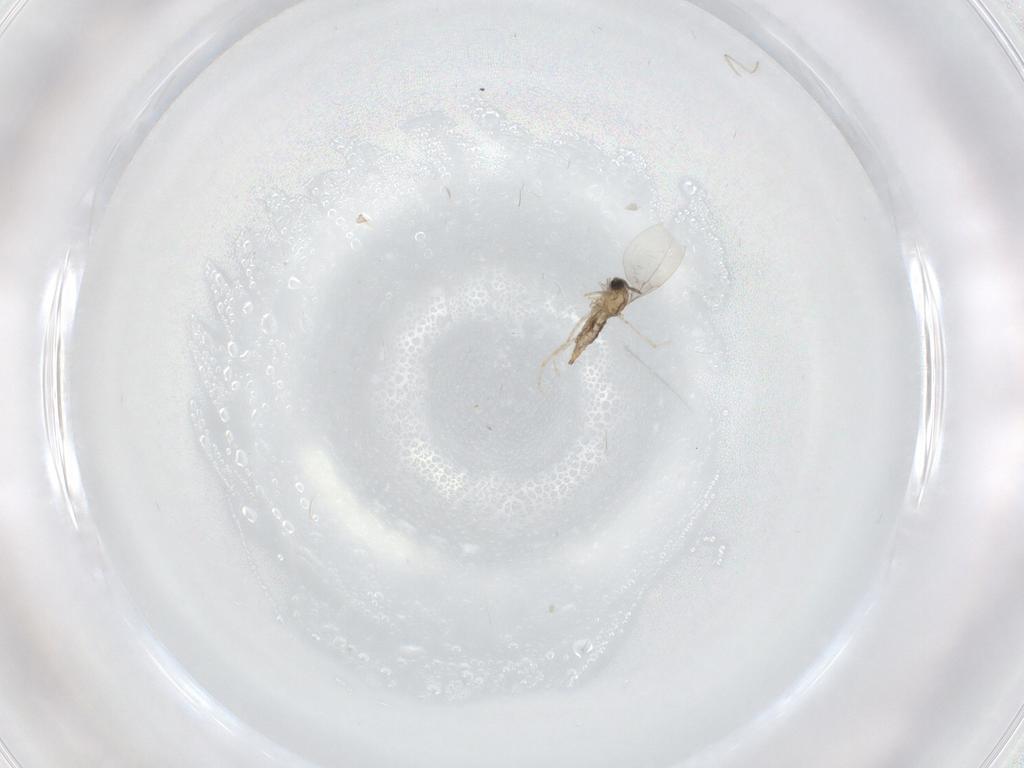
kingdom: Animalia
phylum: Arthropoda
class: Insecta
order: Diptera
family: Cecidomyiidae
